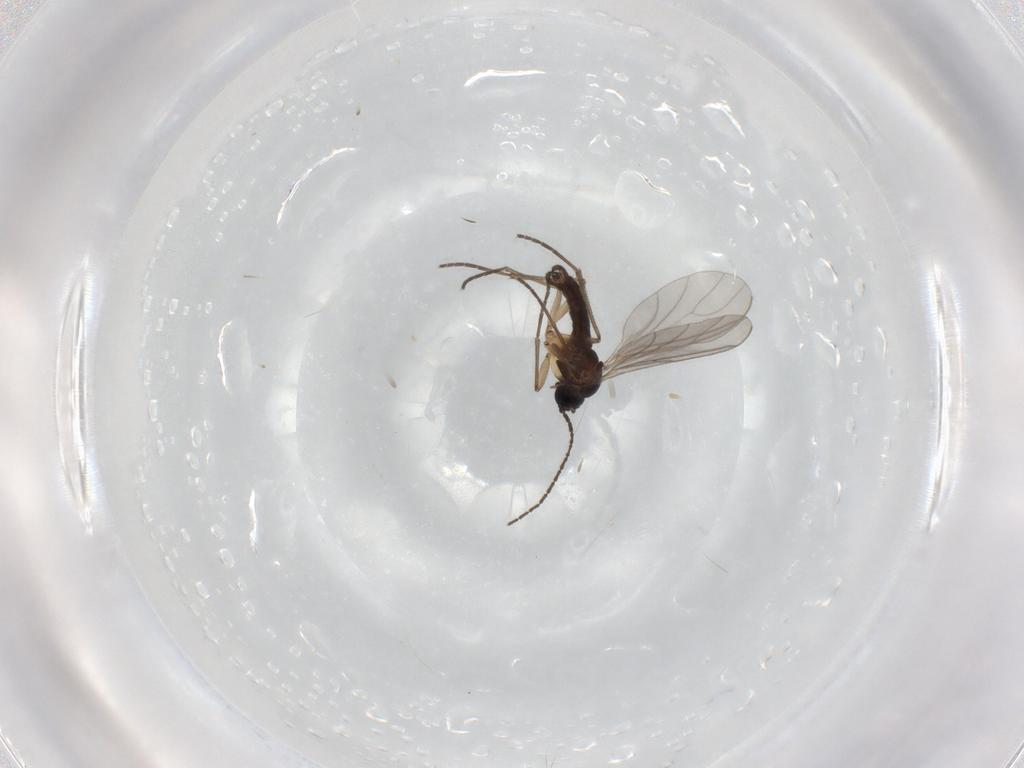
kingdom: Animalia
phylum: Arthropoda
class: Insecta
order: Diptera
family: Sciaridae
